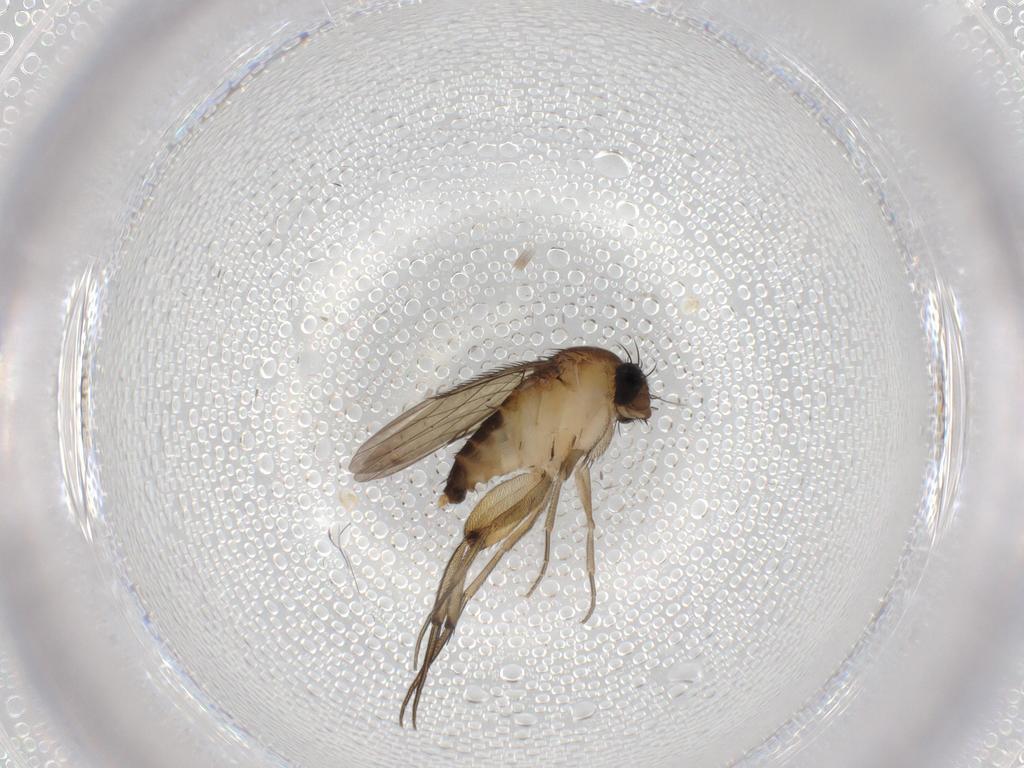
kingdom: Animalia
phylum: Arthropoda
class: Insecta
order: Diptera
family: Phoridae
